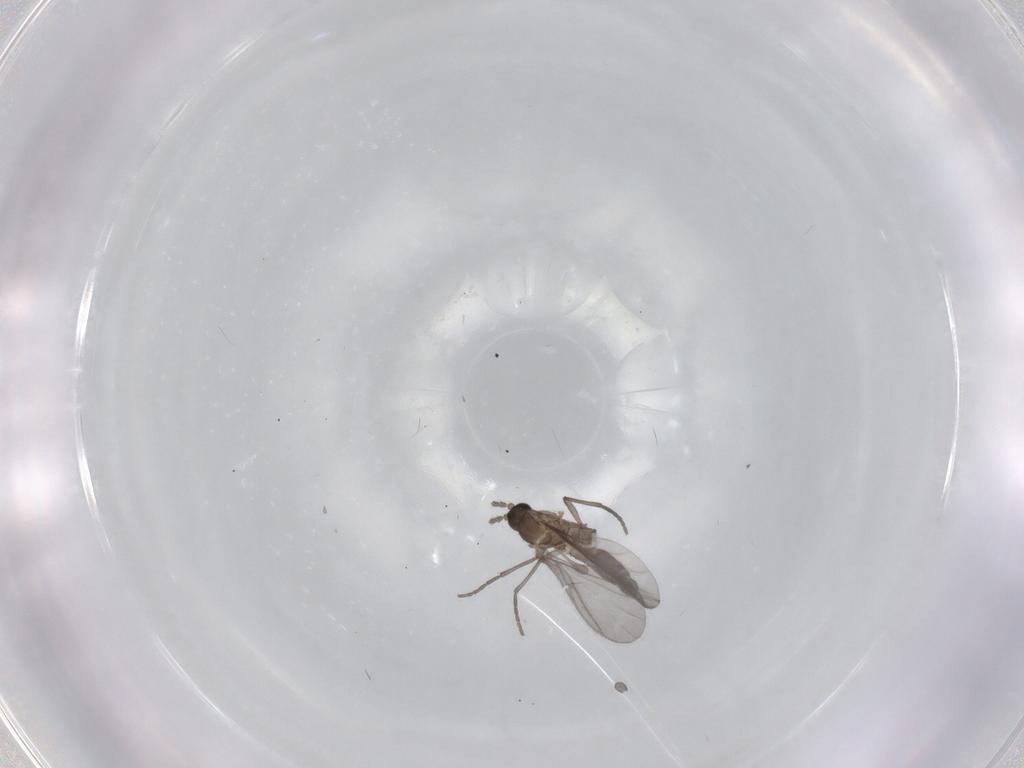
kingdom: Animalia
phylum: Arthropoda
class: Insecta
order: Diptera
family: Sciaridae
